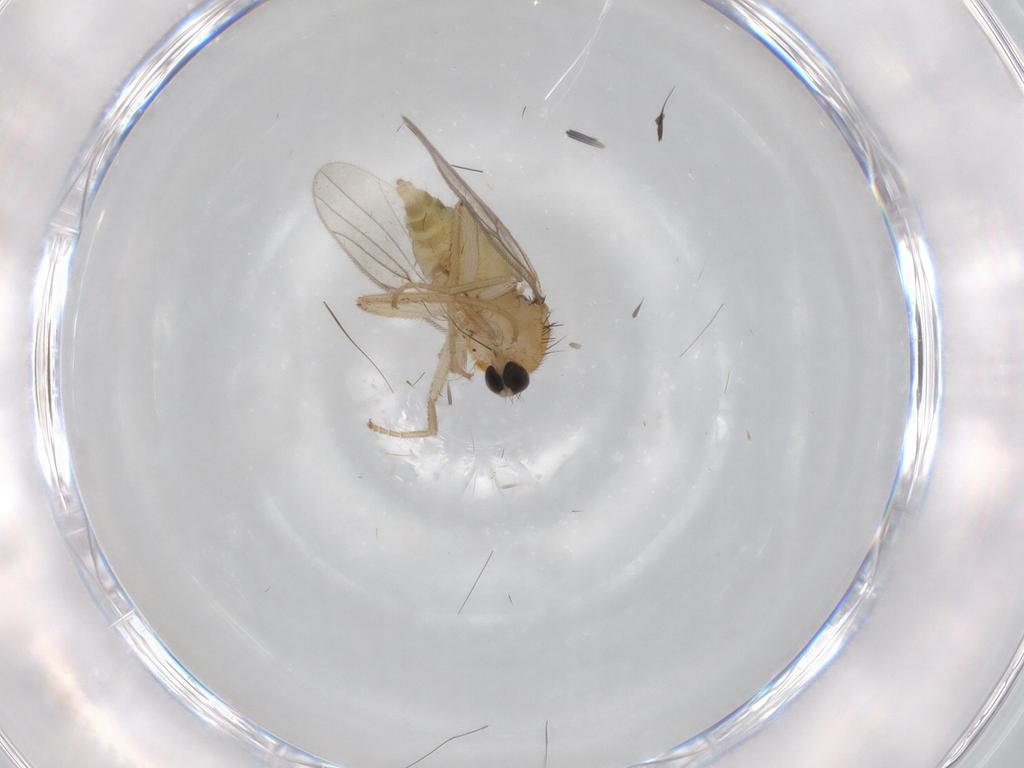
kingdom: Animalia
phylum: Arthropoda
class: Insecta
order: Diptera
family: Hybotidae
